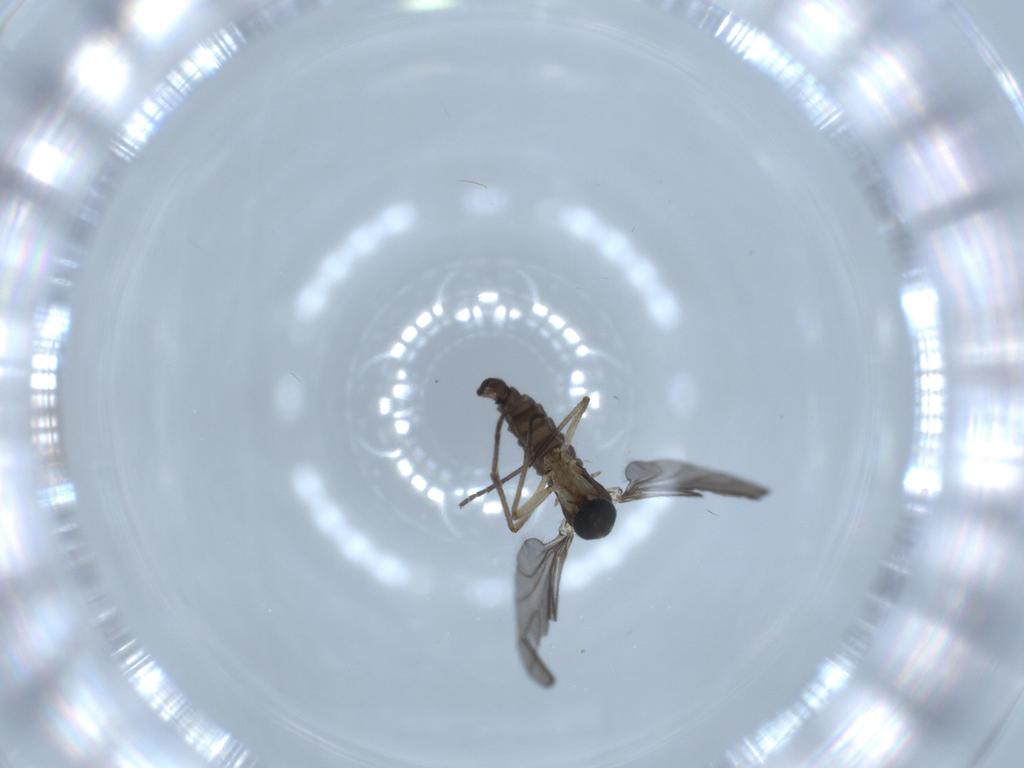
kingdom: Animalia
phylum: Arthropoda
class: Insecta
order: Diptera
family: Sciaridae
